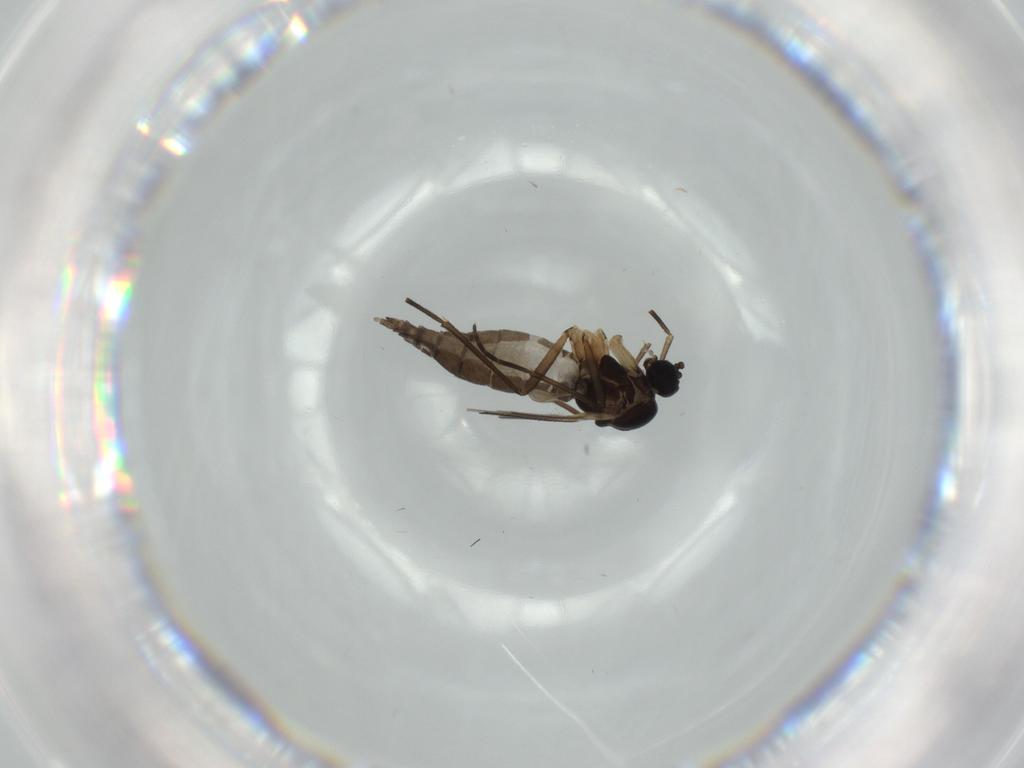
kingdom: Animalia
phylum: Arthropoda
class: Insecta
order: Diptera
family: Sciaridae
